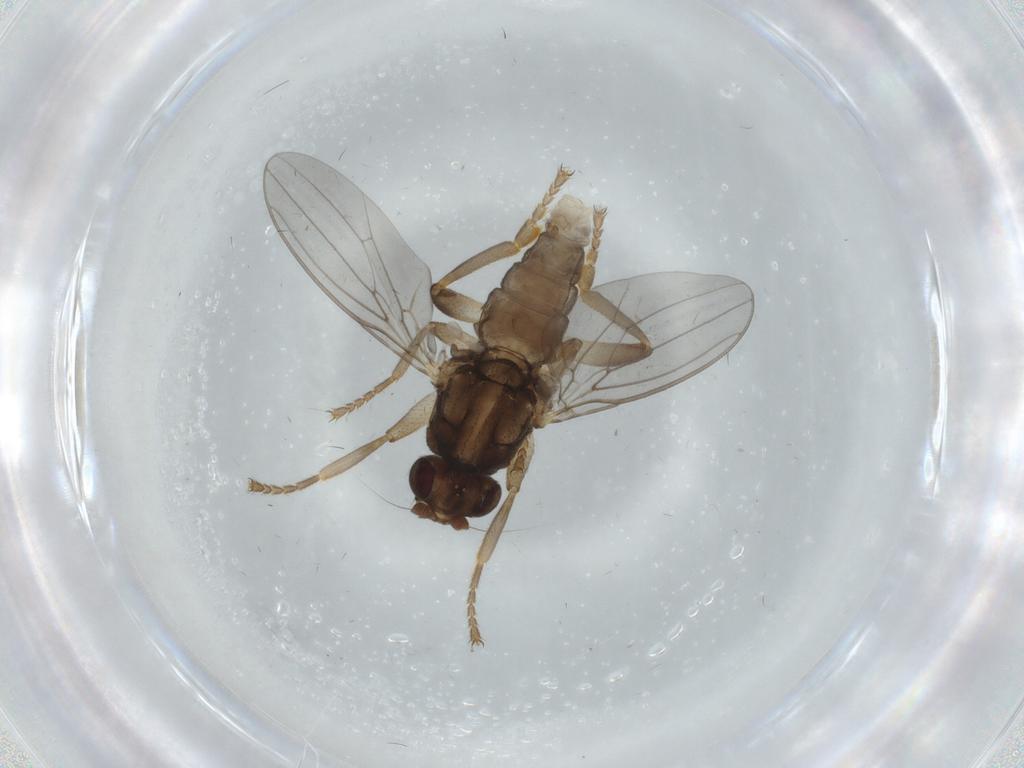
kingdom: Animalia
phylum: Arthropoda
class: Insecta
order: Diptera
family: Sphaeroceridae
